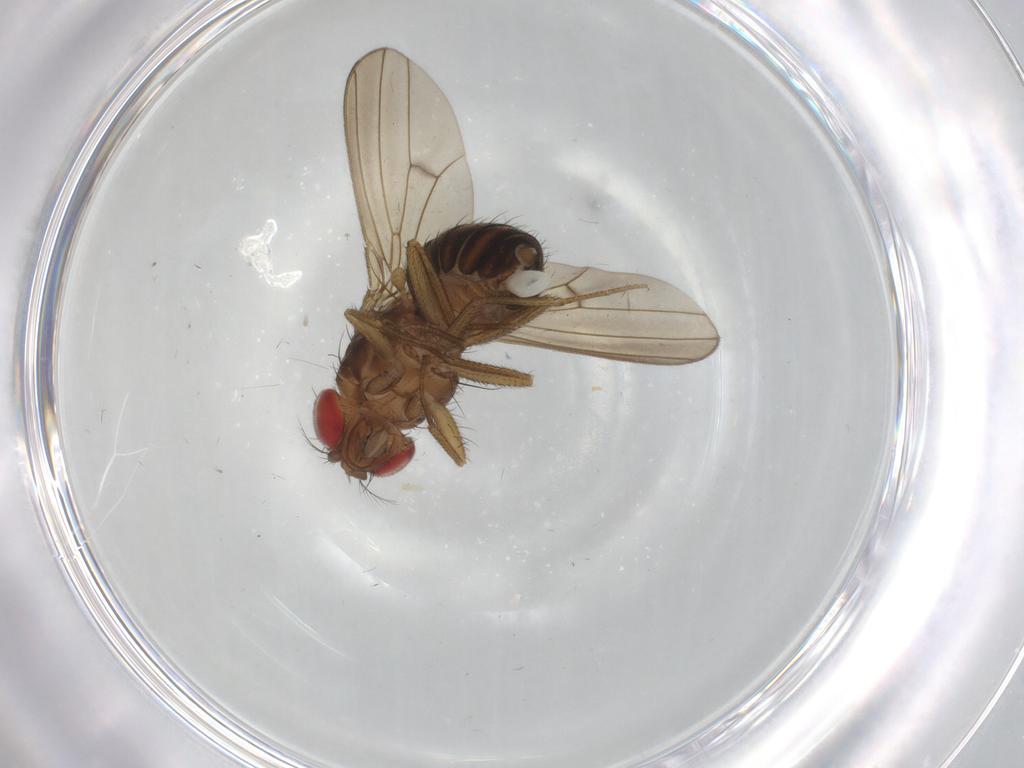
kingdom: Animalia
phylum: Arthropoda
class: Insecta
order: Diptera
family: Drosophilidae
